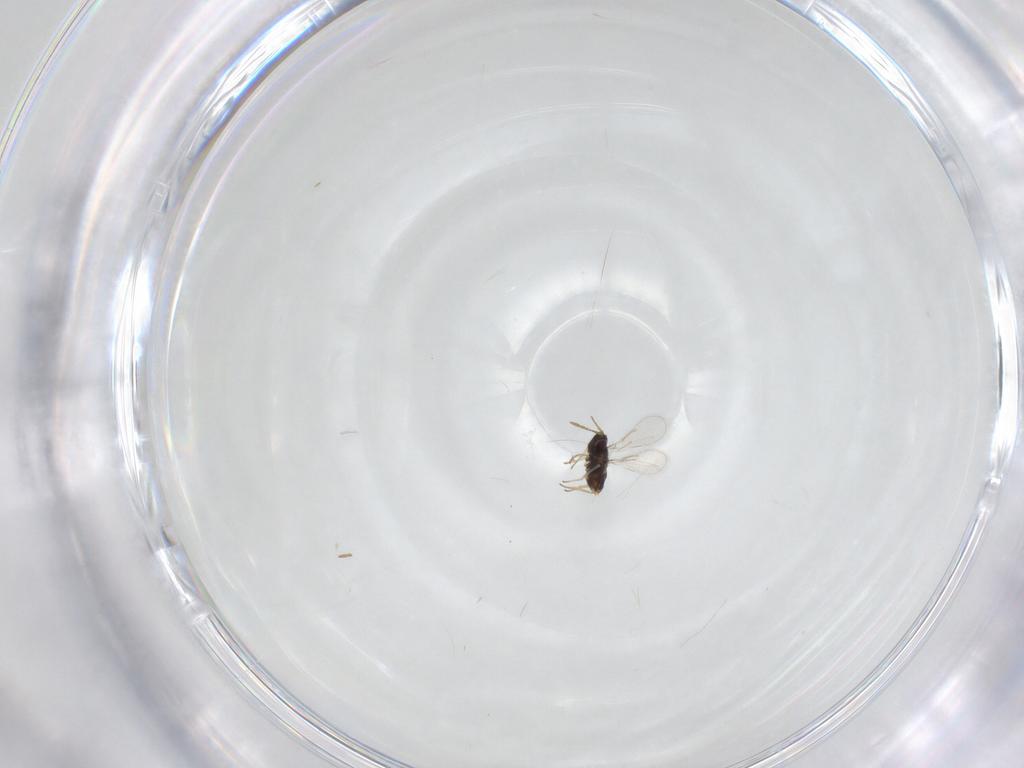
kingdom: Animalia
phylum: Arthropoda
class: Insecta
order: Hymenoptera
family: Aphelinidae
